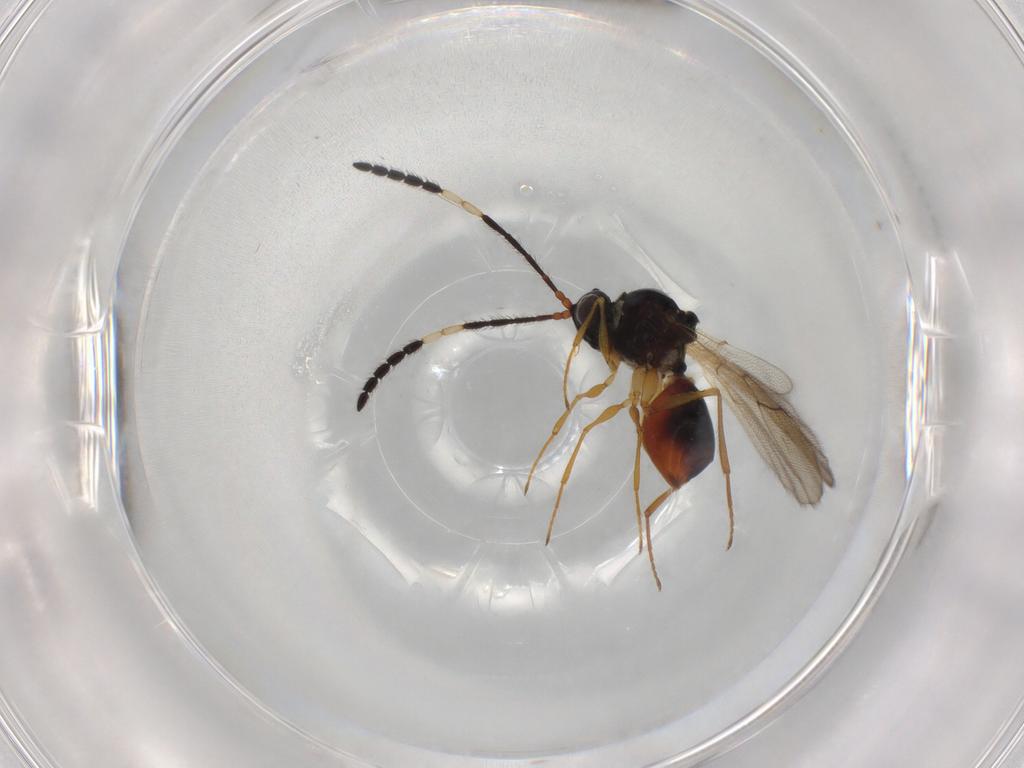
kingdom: Animalia
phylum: Arthropoda
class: Insecta
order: Hymenoptera
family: Figitidae
